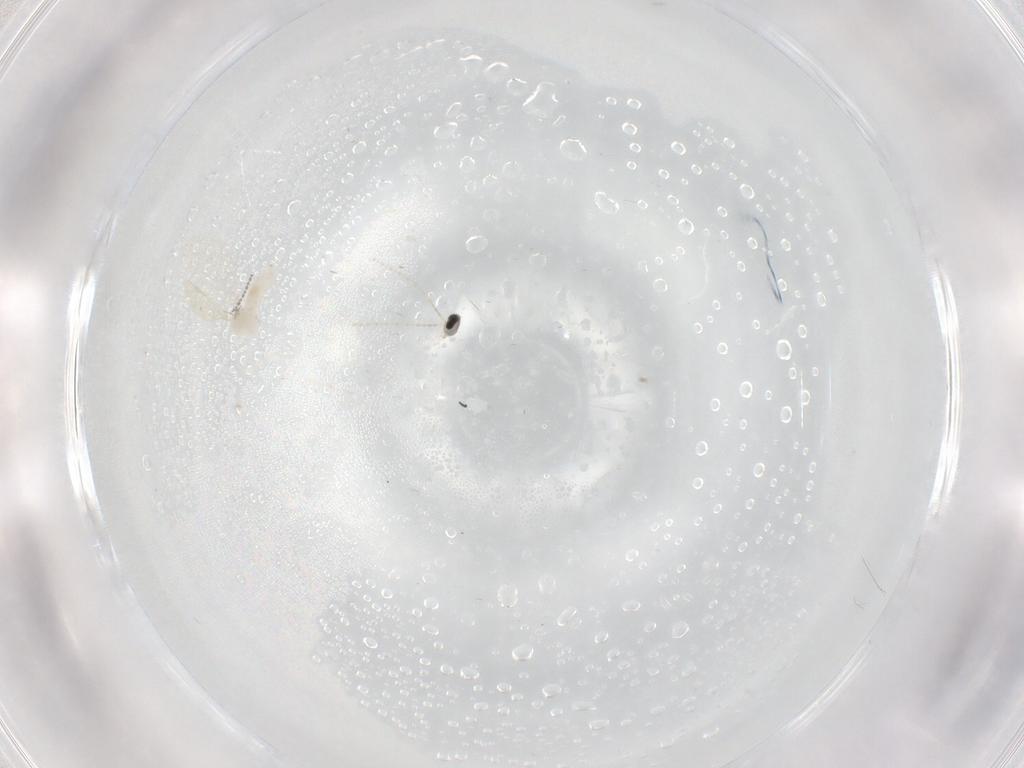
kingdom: Animalia
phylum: Arthropoda
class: Insecta
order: Diptera
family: Cecidomyiidae
